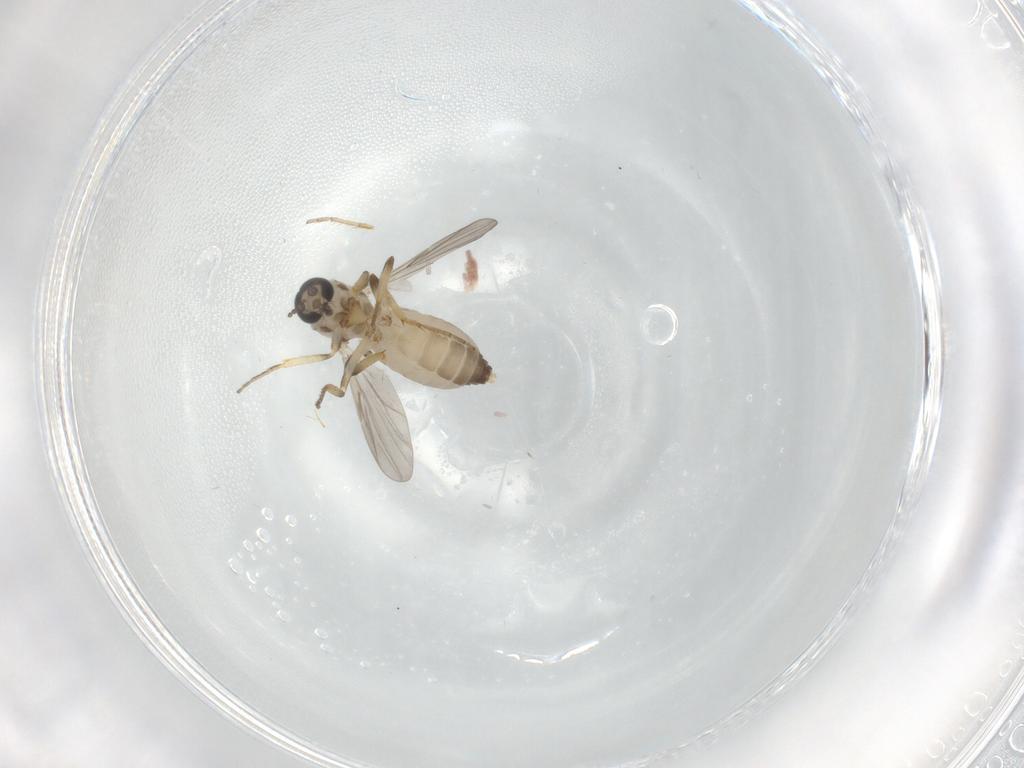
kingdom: Animalia
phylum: Arthropoda
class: Insecta
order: Diptera
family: Ceratopogonidae
